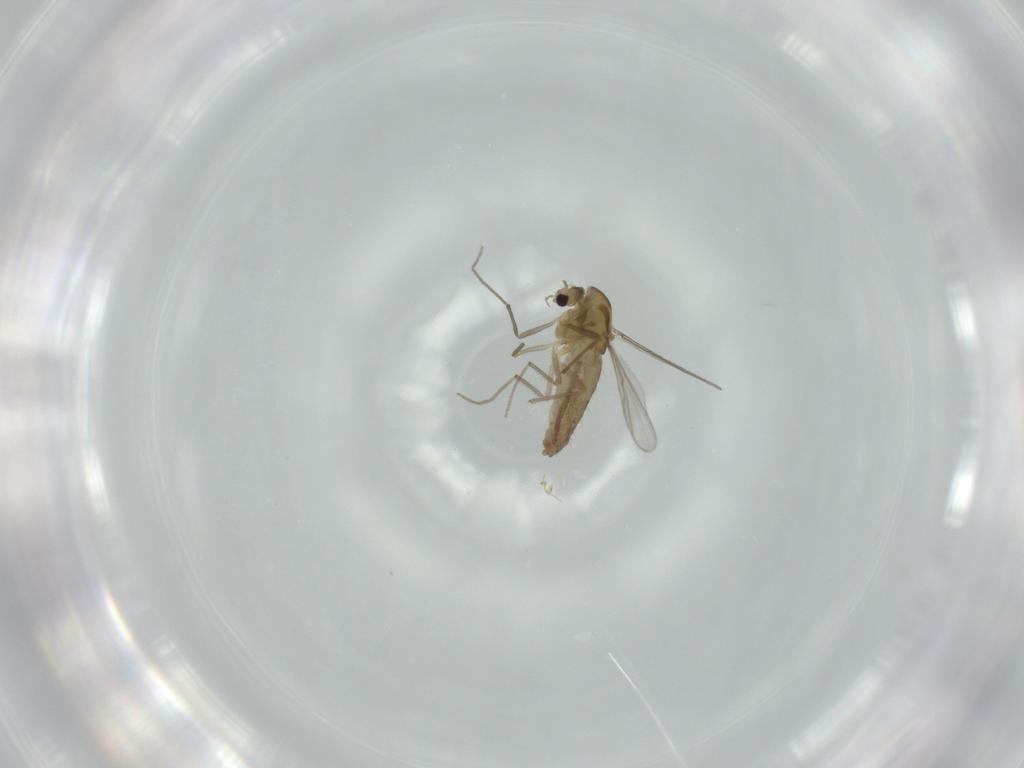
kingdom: Animalia
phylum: Arthropoda
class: Insecta
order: Diptera
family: Chironomidae
